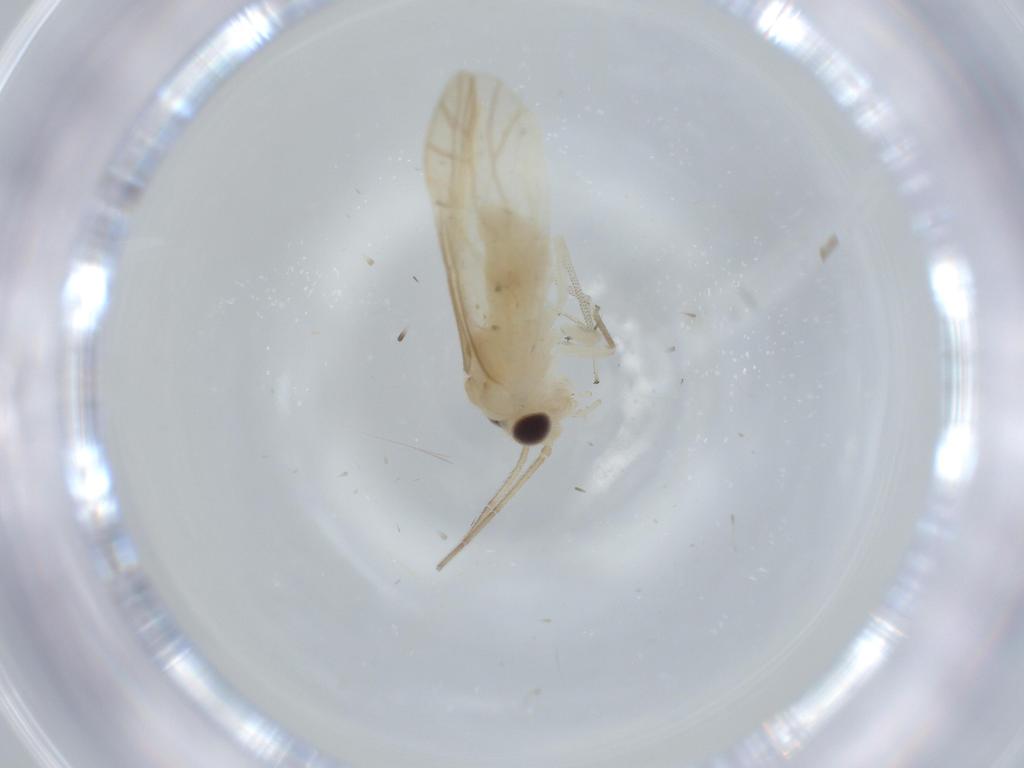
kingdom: Animalia
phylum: Arthropoda
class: Insecta
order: Psocodea
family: Caeciliusidae
